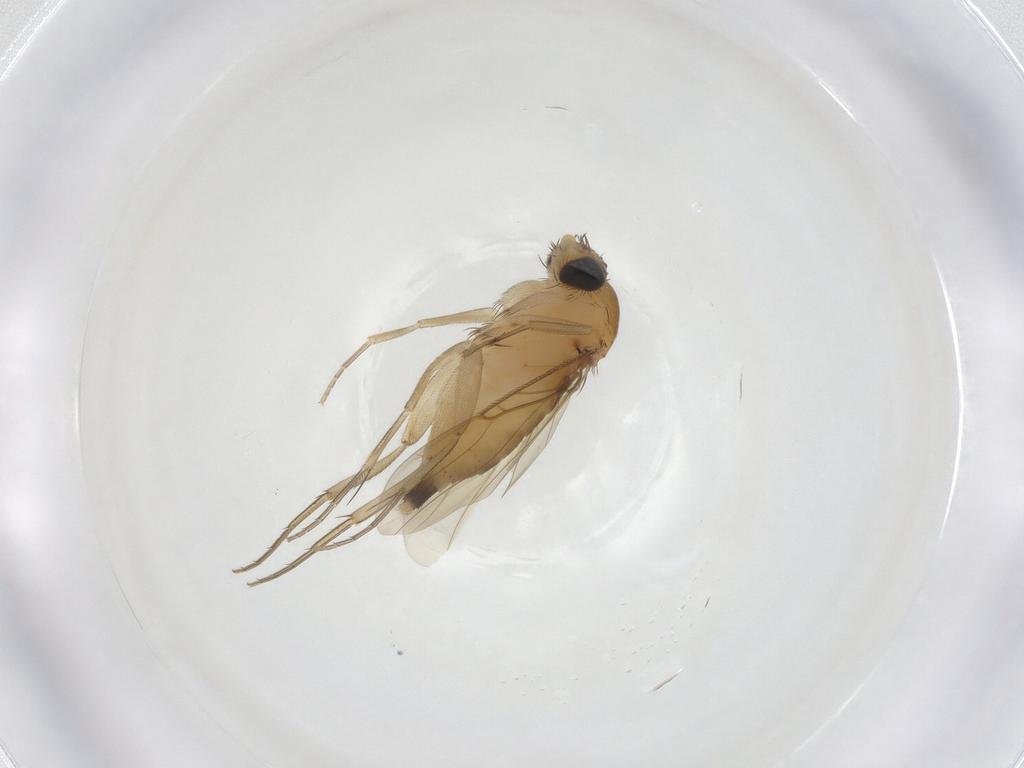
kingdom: Animalia
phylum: Arthropoda
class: Insecta
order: Diptera
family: Phoridae
